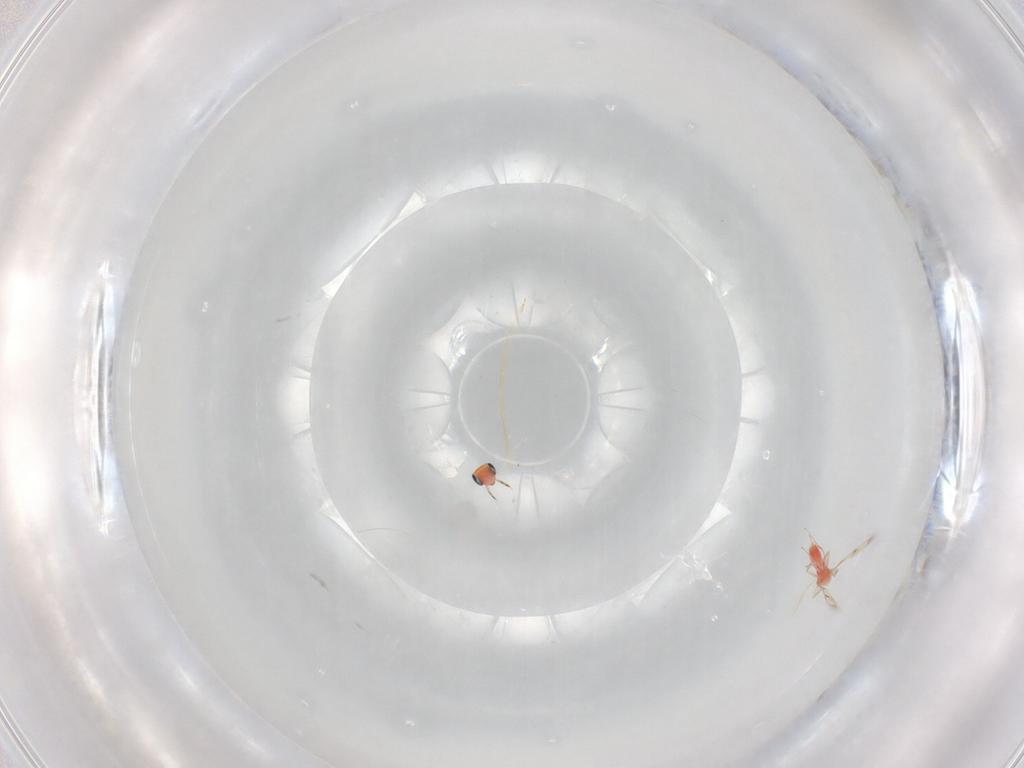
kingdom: Animalia
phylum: Arthropoda
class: Insecta
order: Hymenoptera
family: Trichogrammatidae
